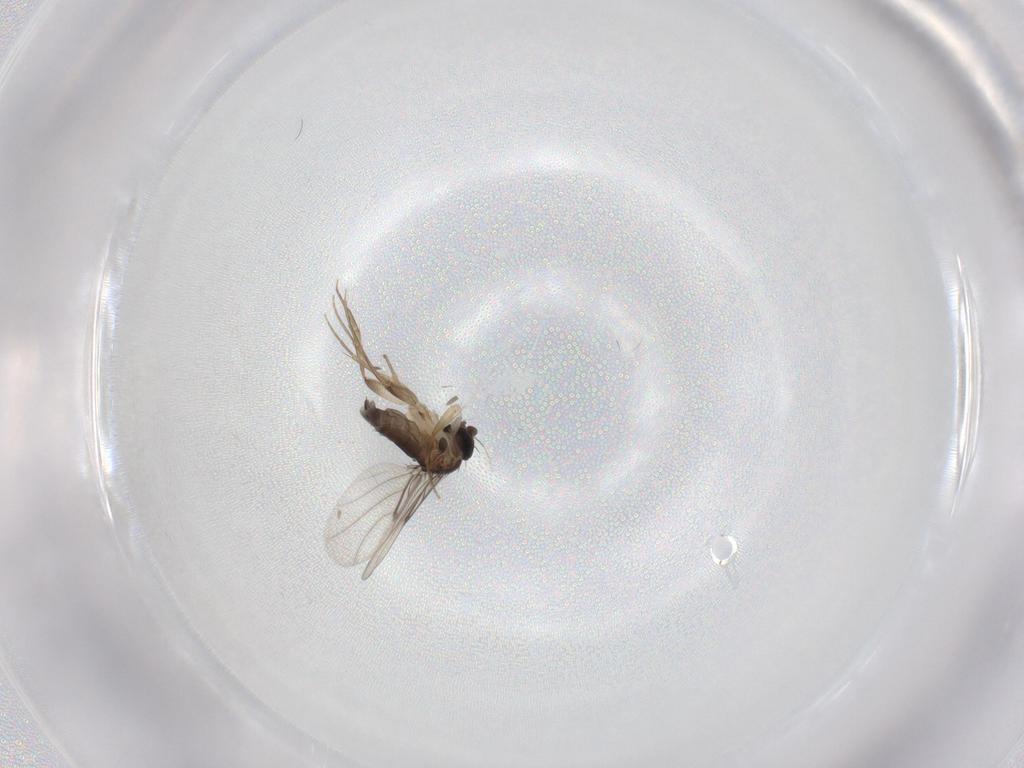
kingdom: Animalia
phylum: Arthropoda
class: Insecta
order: Diptera
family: Phoridae
